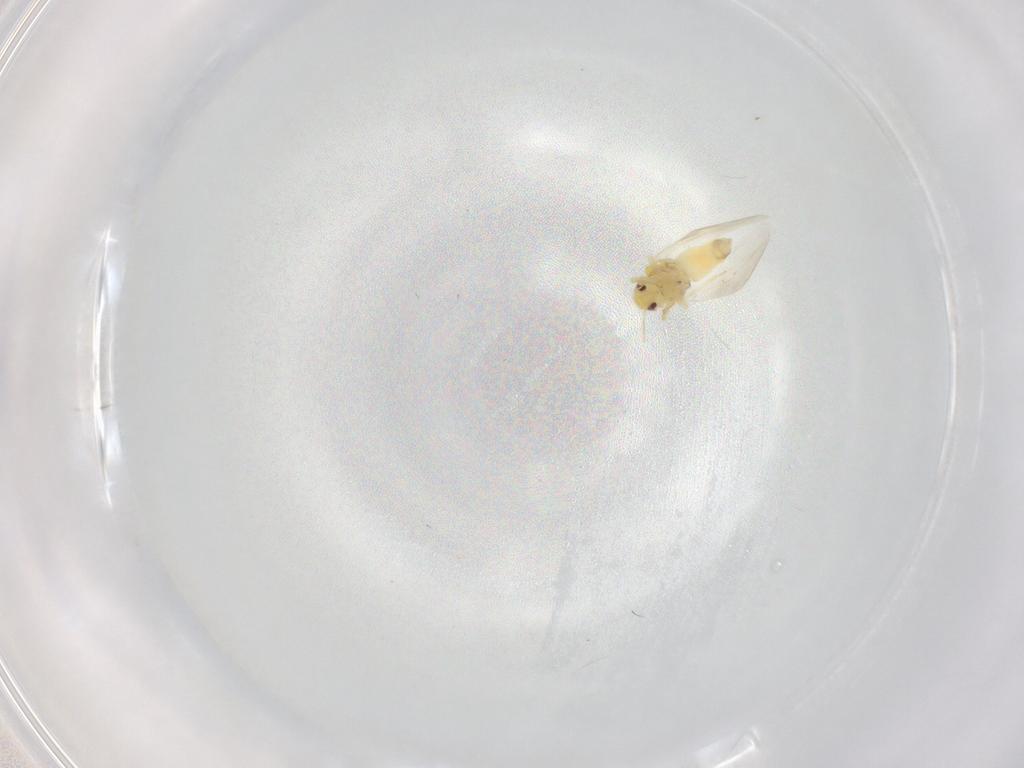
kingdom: Animalia
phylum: Arthropoda
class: Insecta
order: Hemiptera
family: Aleyrodidae
